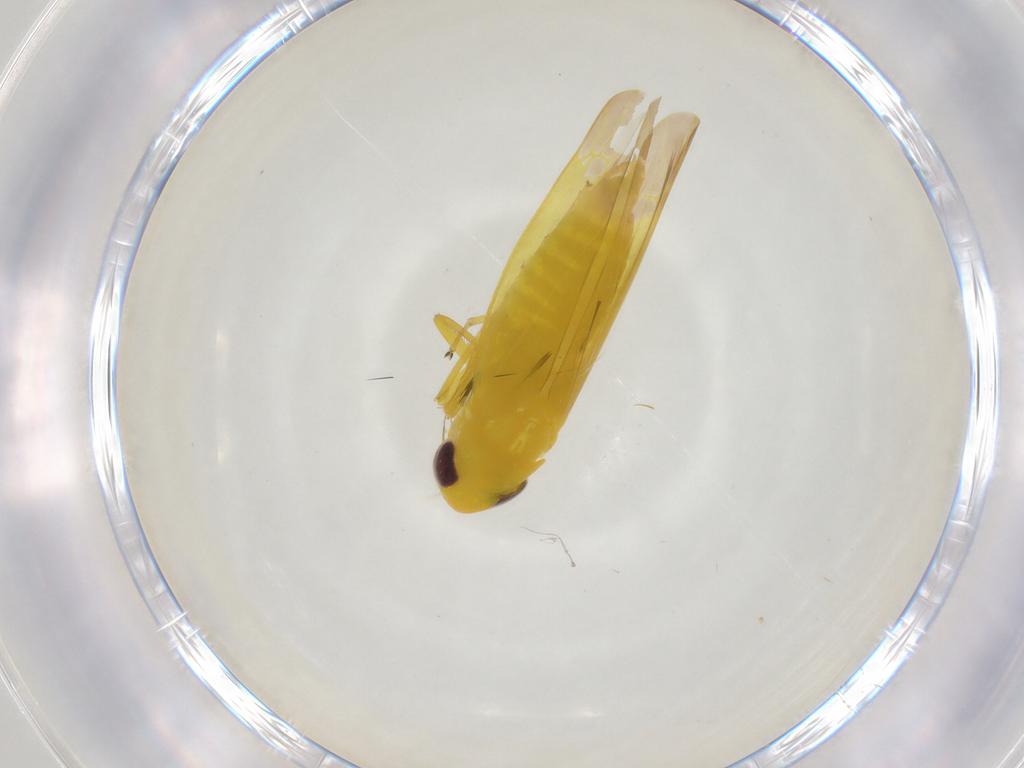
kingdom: Animalia
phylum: Arthropoda
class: Insecta
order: Hemiptera
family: Cicadellidae
